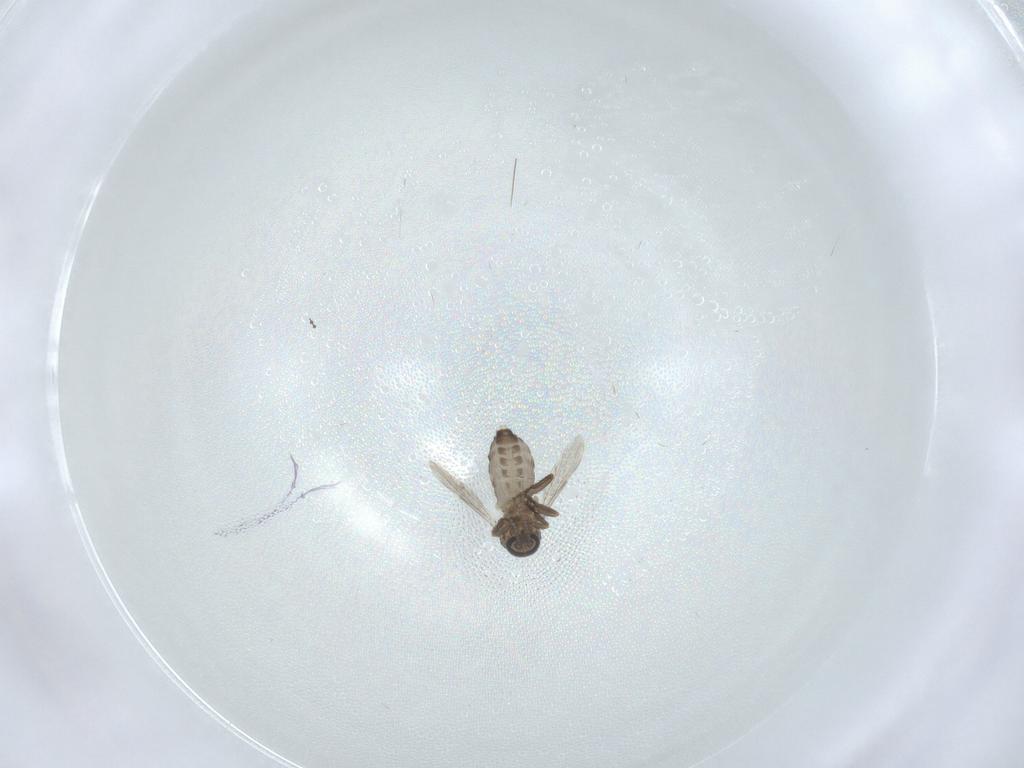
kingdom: Animalia
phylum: Arthropoda
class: Insecta
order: Diptera
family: Ceratopogonidae
